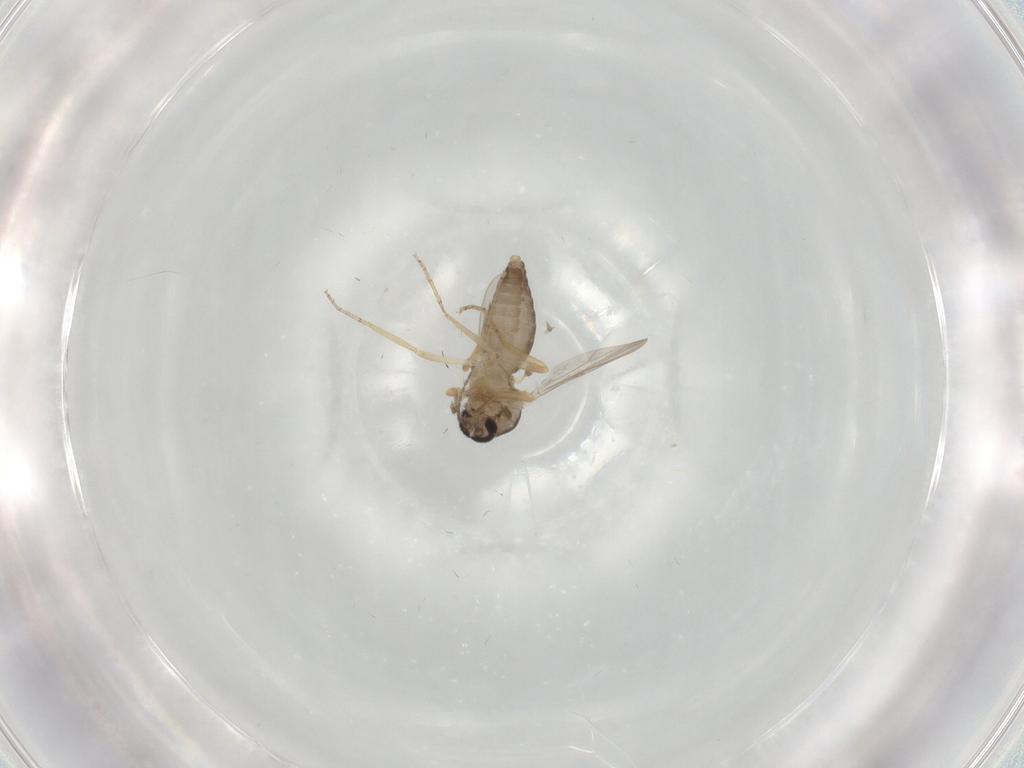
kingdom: Animalia
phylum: Arthropoda
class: Insecta
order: Diptera
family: Ceratopogonidae
